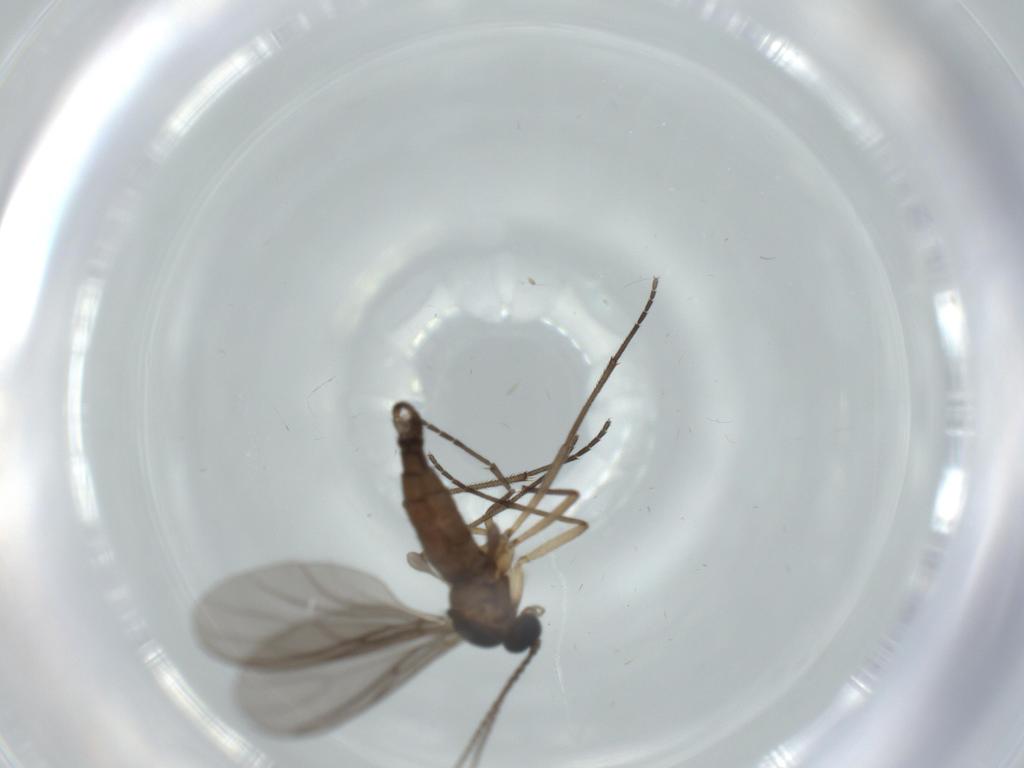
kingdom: Animalia
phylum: Arthropoda
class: Insecta
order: Diptera
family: Sciaridae
